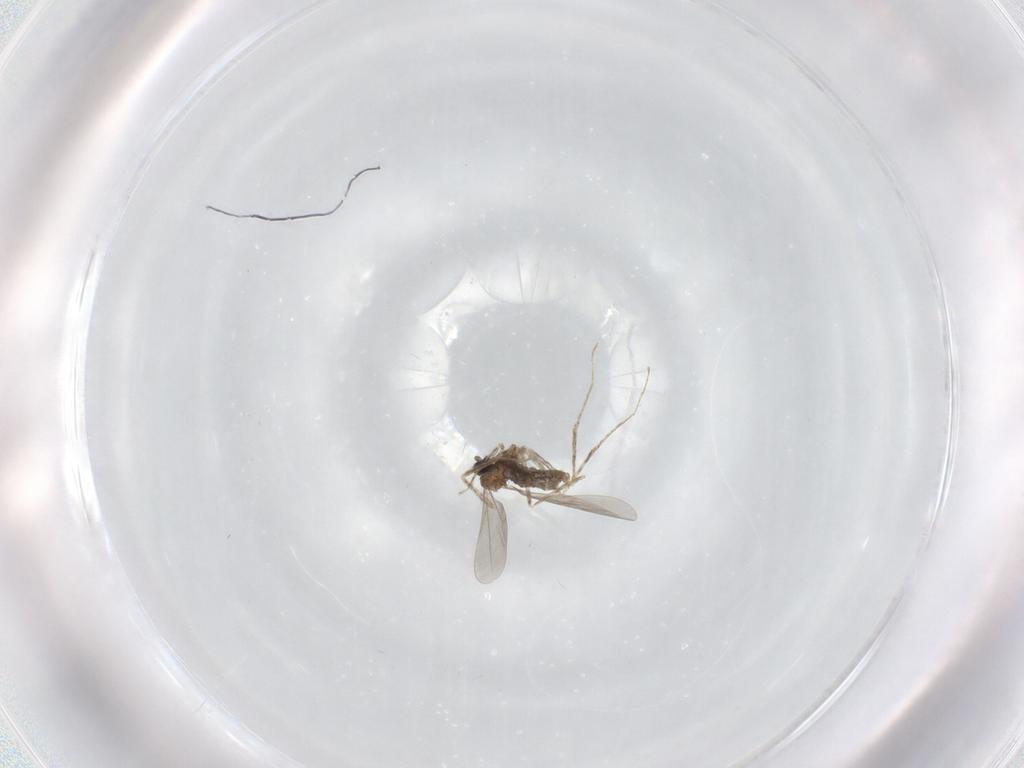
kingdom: Animalia
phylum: Arthropoda
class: Insecta
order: Diptera
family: Cecidomyiidae
